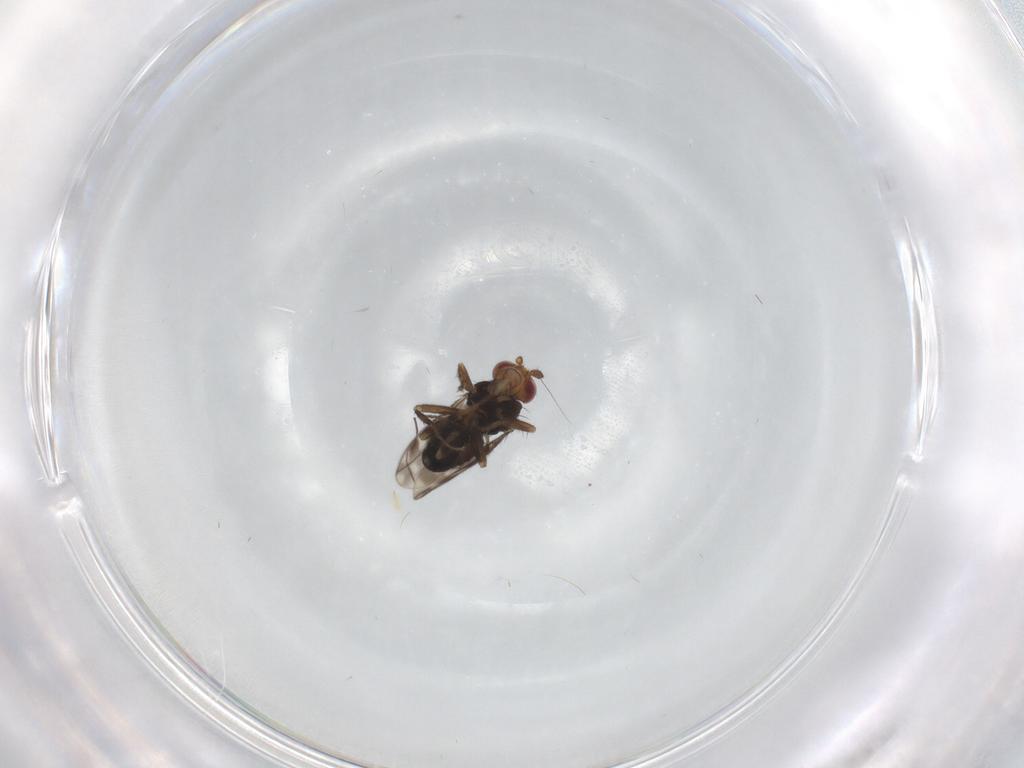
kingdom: Animalia
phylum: Arthropoda
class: Insecta
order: Diptera
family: Sphaeroceridae
